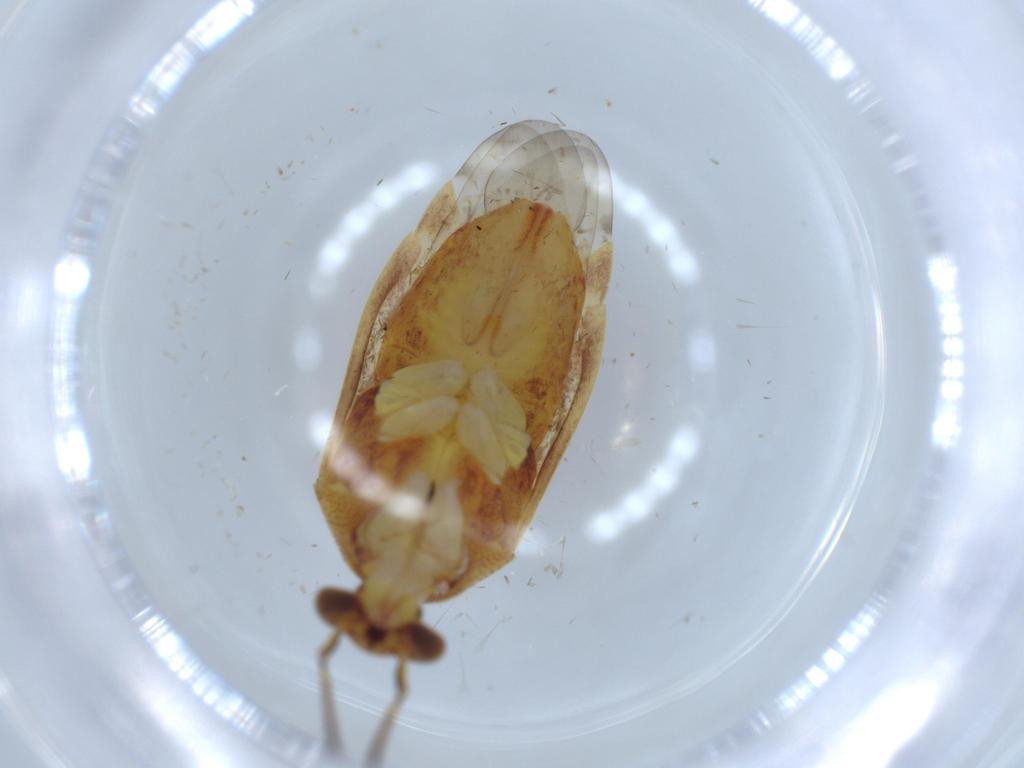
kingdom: Animalia
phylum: Arthropoda
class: Insecta
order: Hemiptera
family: Miridae
